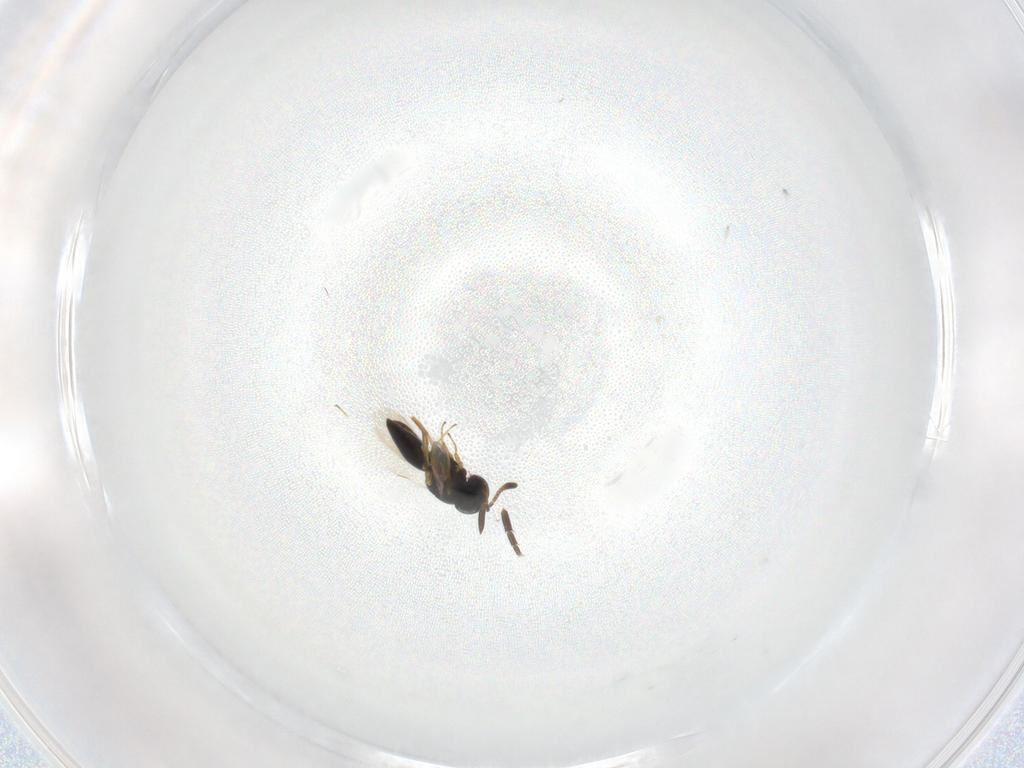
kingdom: Animalia
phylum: Arthropoda
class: Insecta
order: Hymenoptera
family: Scelionidae
